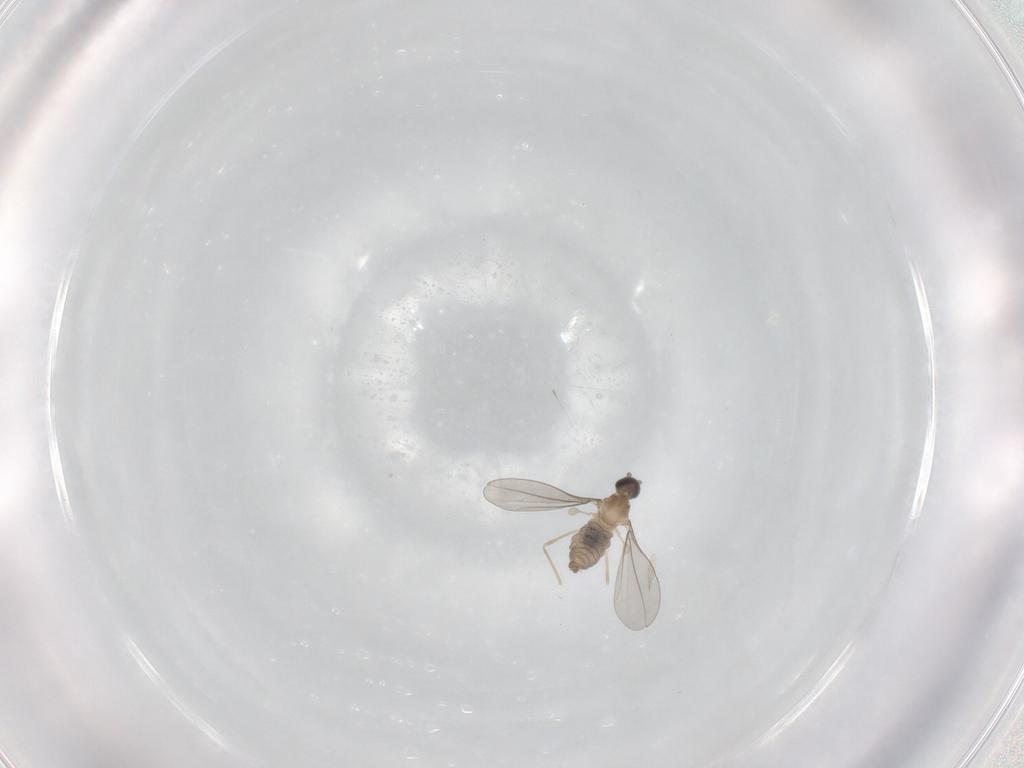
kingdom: Animalia
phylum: Arthropoda
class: Insecta
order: Diptera
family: Cecidomyiidae
